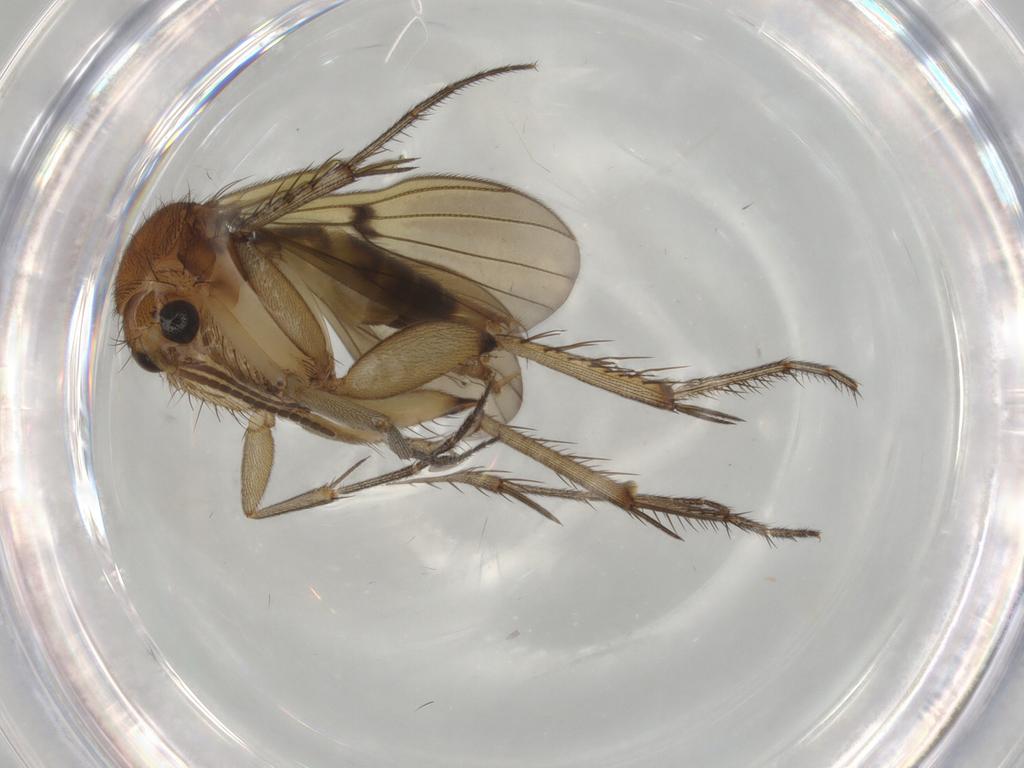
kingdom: Animalia
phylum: Arthropoda
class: Insecta
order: Diptera
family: Mycetophilidae
